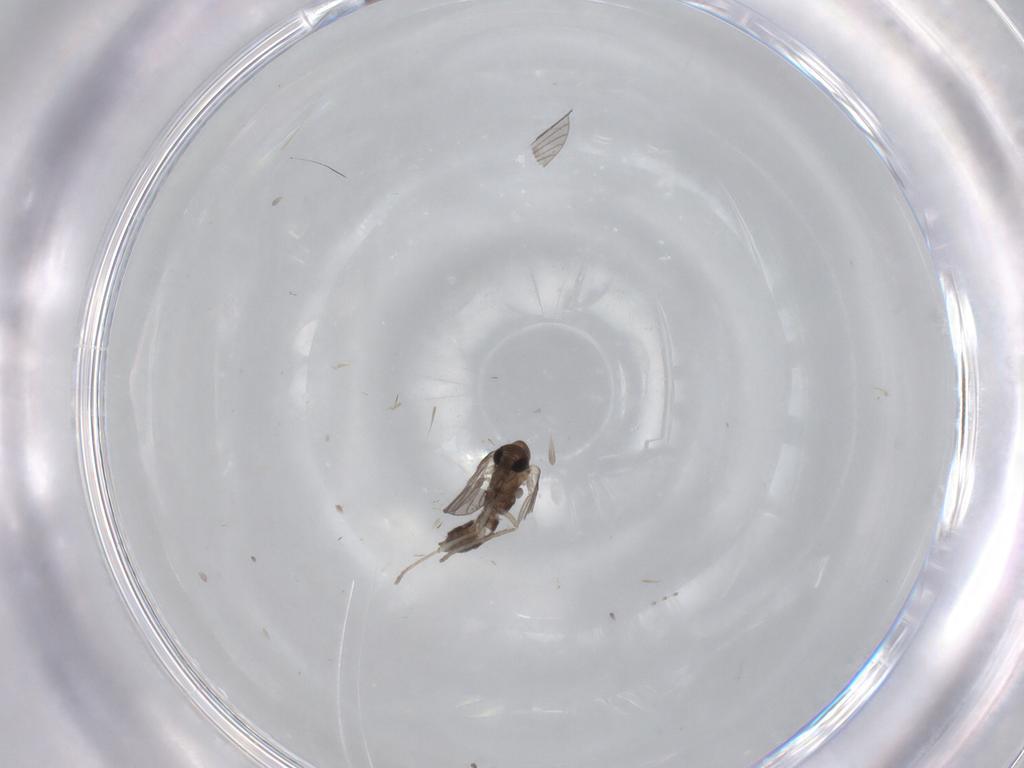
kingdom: Animalia
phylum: Arthropoda
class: Insecta
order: Diptera
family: Psychodidae
